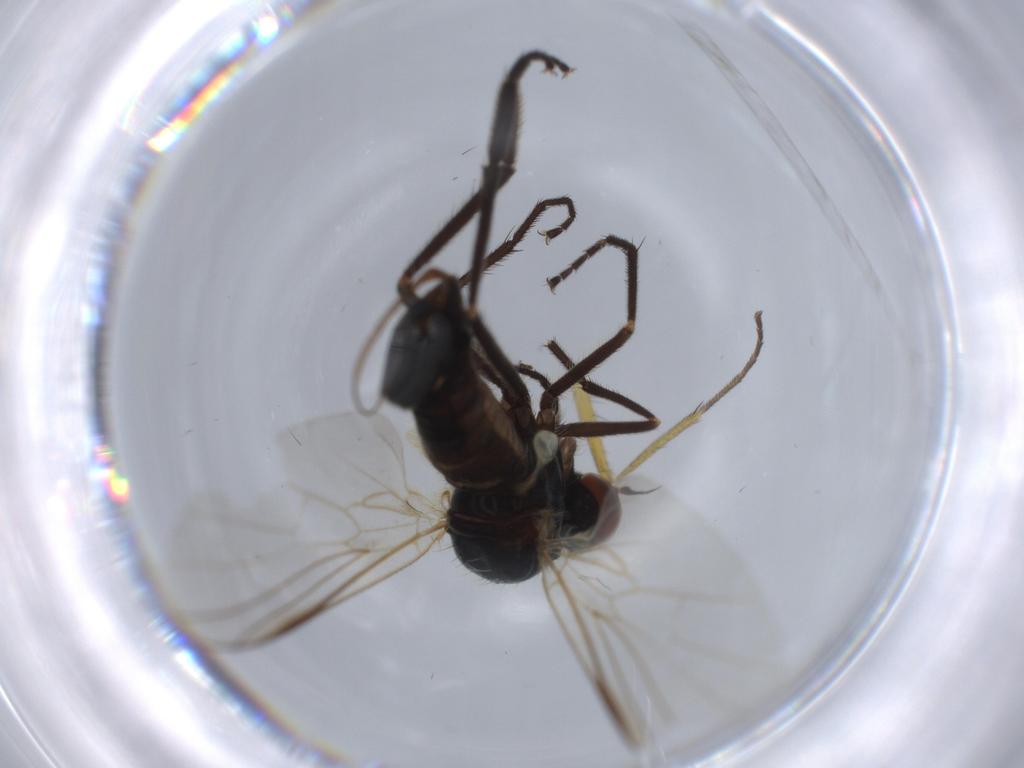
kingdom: Animalia
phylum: Arthropoda
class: Insecta
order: Diptera
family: Empididae
